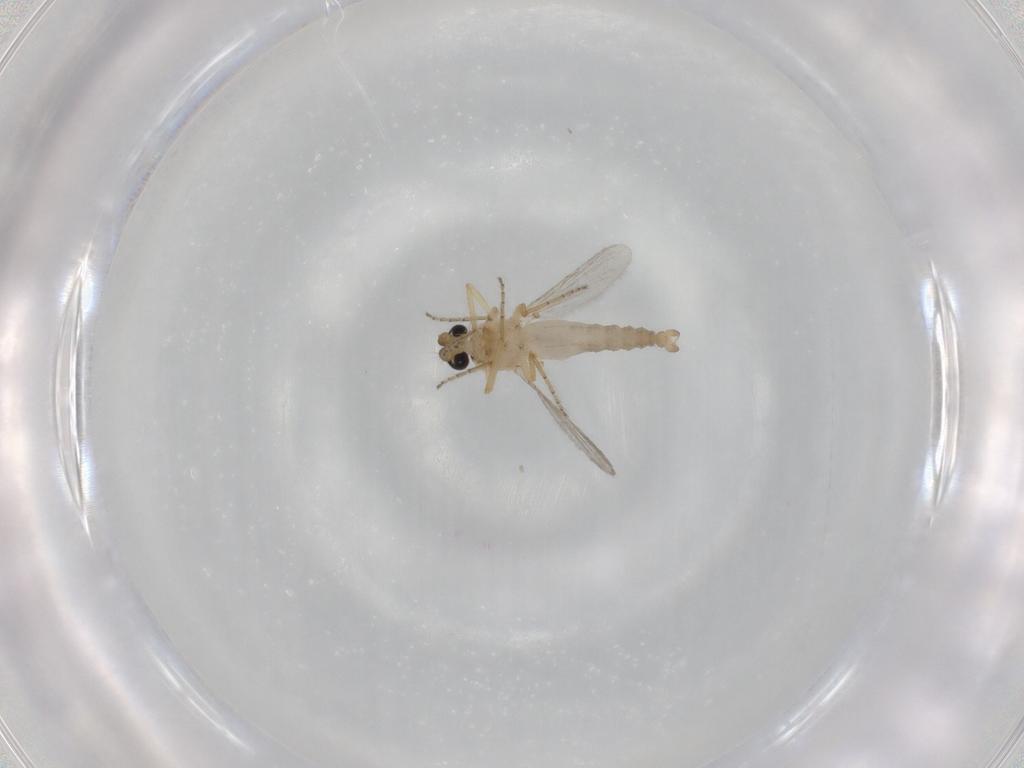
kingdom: Animalia
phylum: Arthropoda
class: Insecta
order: Diptera
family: Ceratopogonidae
